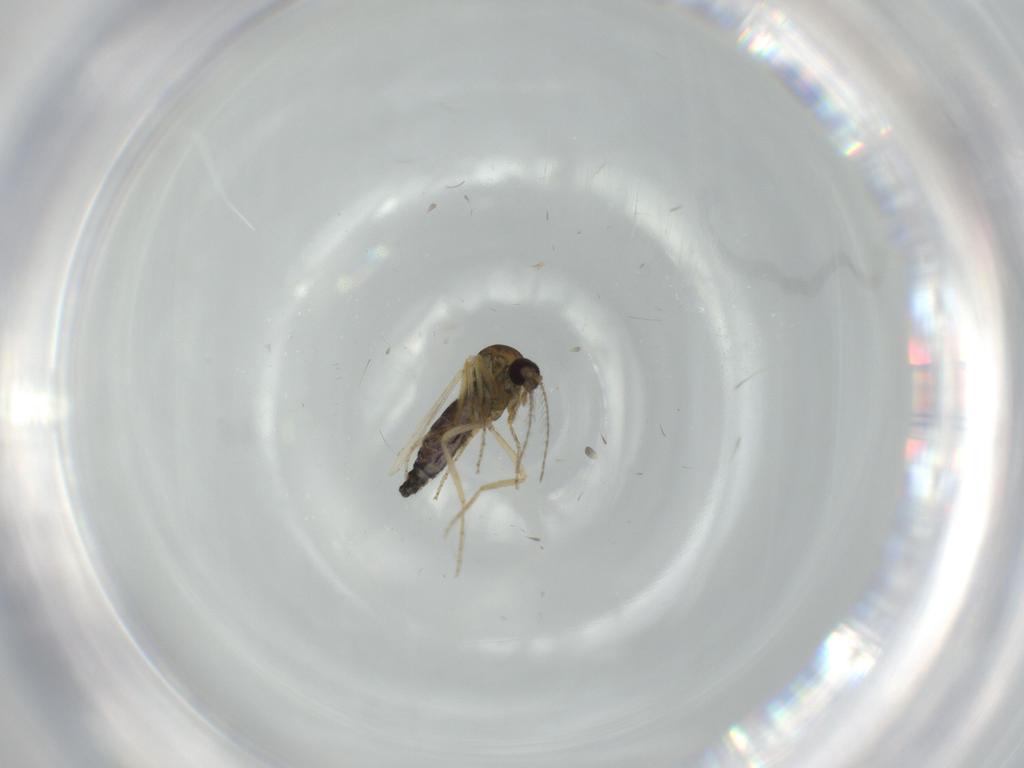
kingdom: Animalia
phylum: Arthropoda
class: Insecta
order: Diptera
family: Ceratopogonidae
